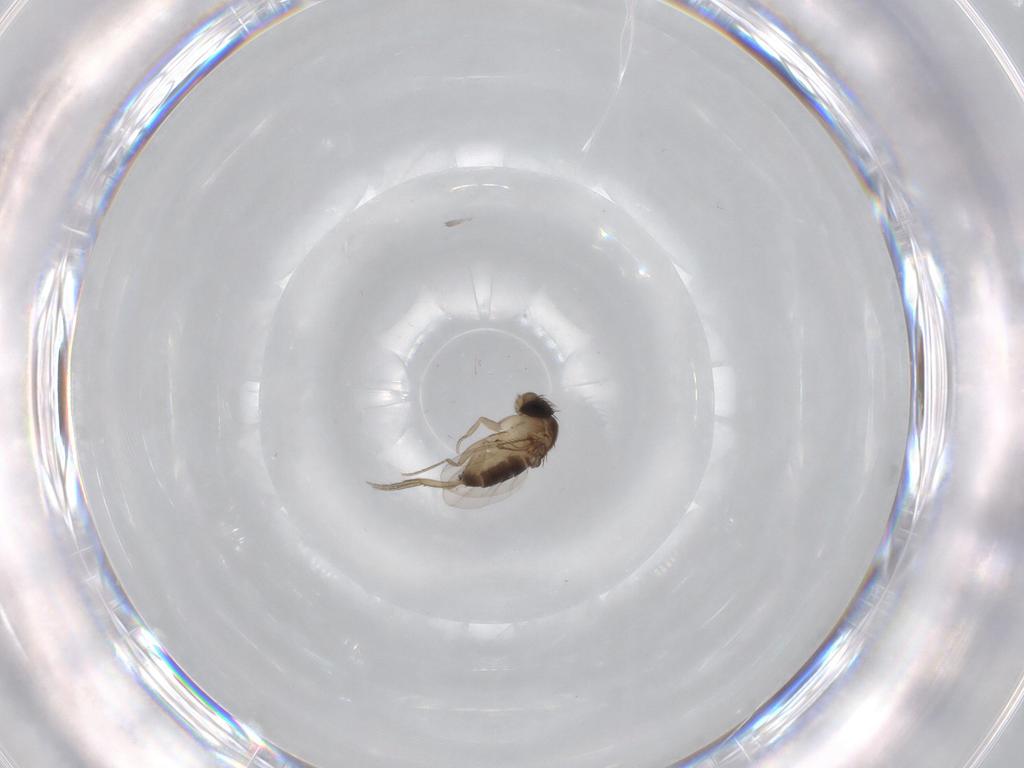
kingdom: Animalia
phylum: Arthropoda
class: Insecta
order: Diptera
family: Phoridae
